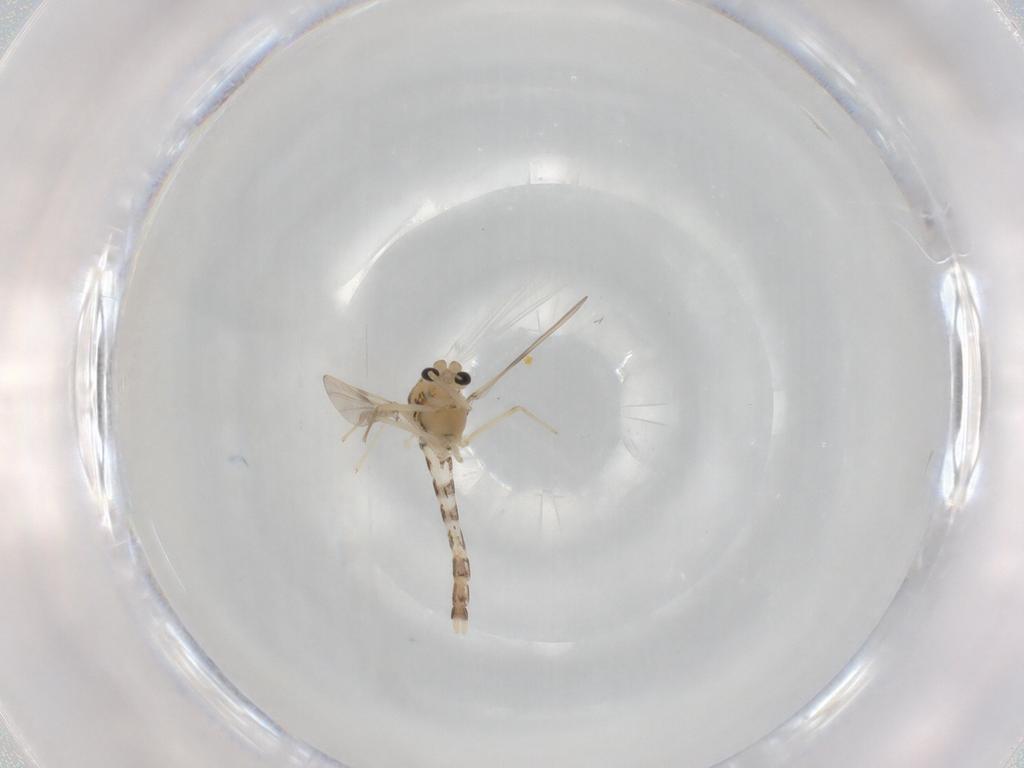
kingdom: Animalia
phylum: Arthropoda
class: Insecta
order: Diptera
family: Chironomidae
